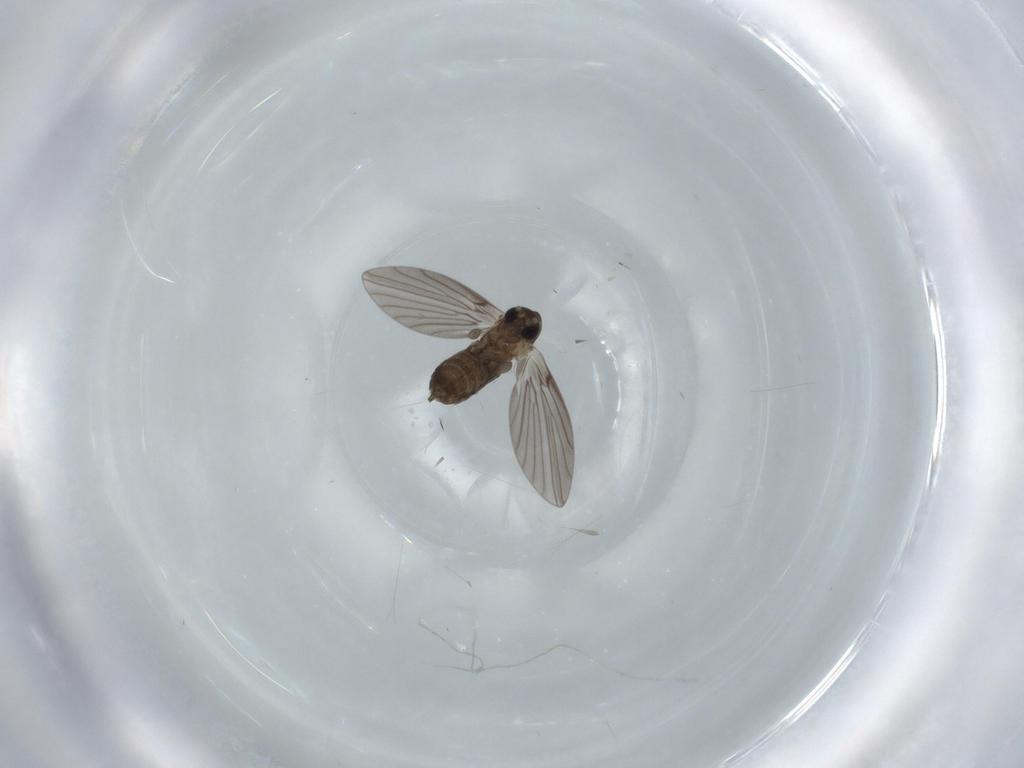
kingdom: Animalia
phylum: Arthropoda
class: Insecta
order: Diptera
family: Psychodidae
